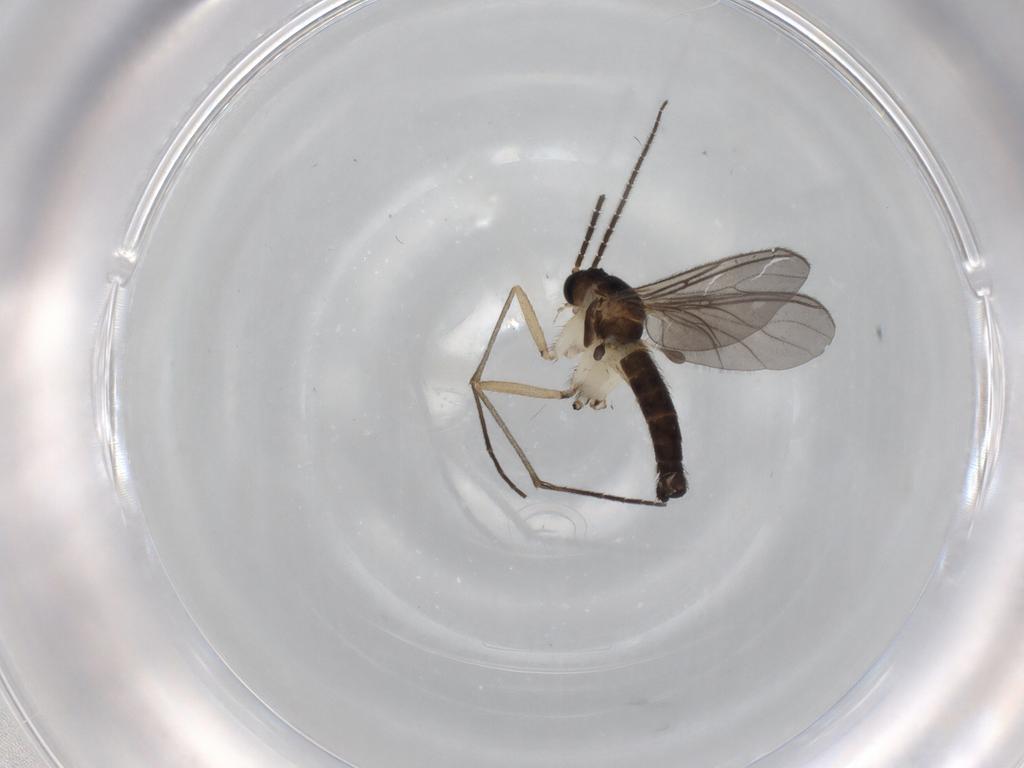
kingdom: Animalia
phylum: Arthropoda
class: Insecta
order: Diptera
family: Sciaridae
